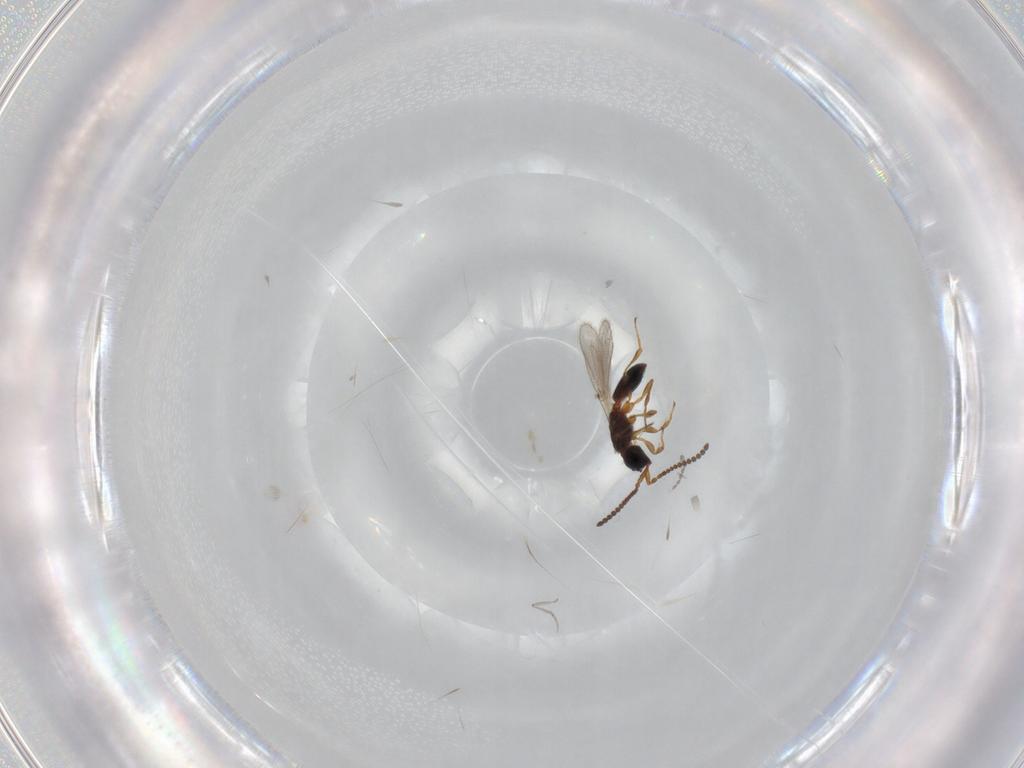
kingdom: Animalia
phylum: Arthropoda
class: Insecta
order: Hymenoptera
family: Diapriidae
